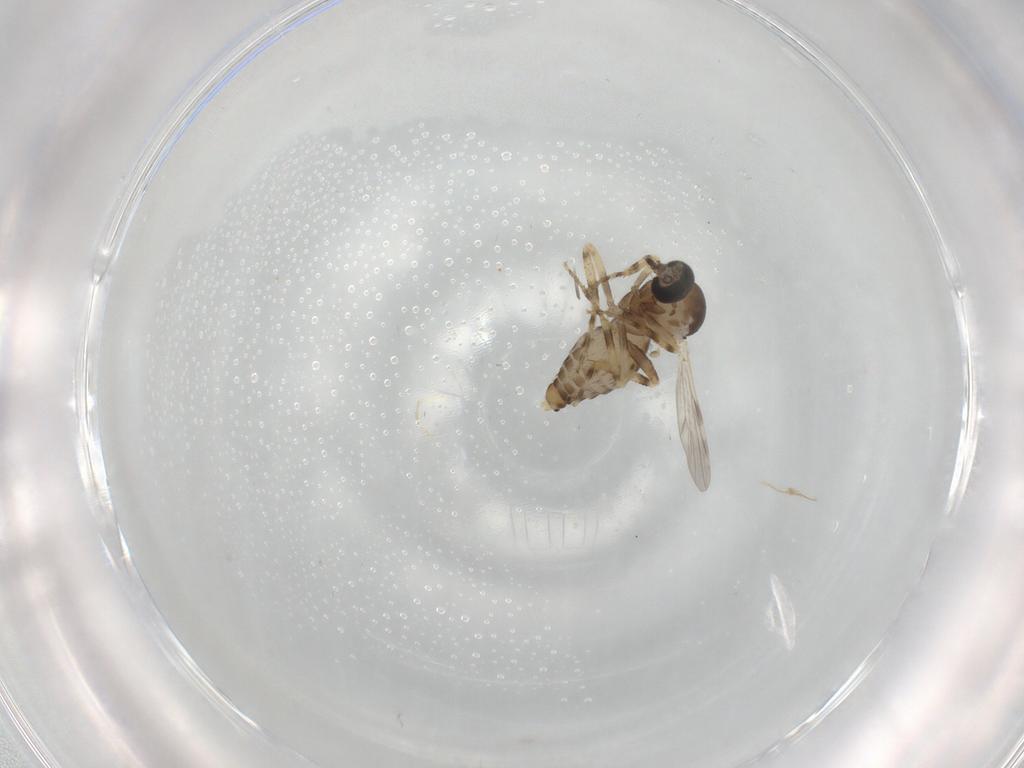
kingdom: Animalia
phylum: Arthropoda
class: Insecta
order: Diptera
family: Ceratopogonidae
